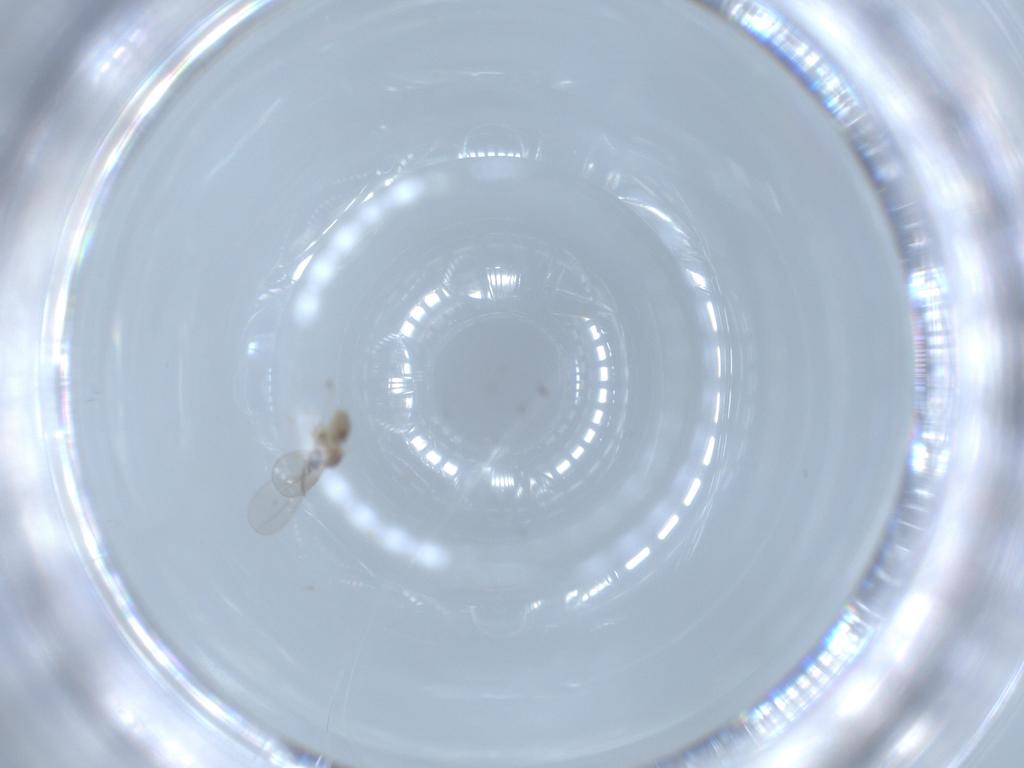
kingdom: Animalia
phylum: Arthropoda
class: Insecta
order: Diptera
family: Cecidomyiidae
